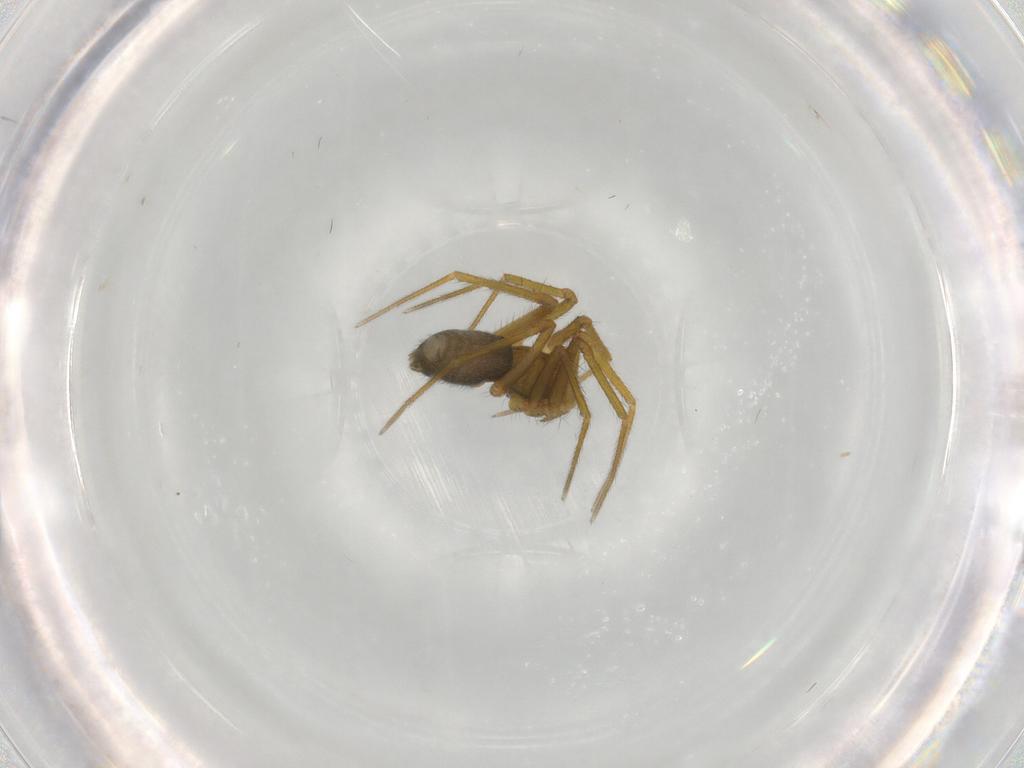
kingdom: Animalia
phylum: Arthropoda
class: Arachnida
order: Araneae
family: Linyphiidae
